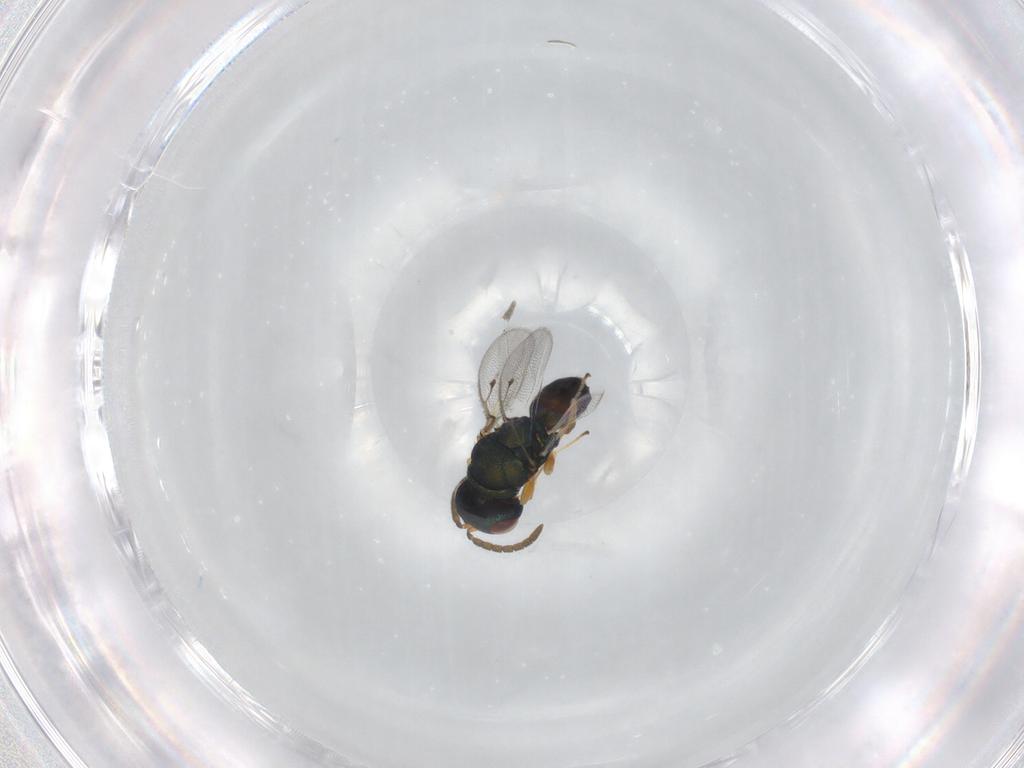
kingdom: Animalia
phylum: Arthropoda
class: Insecta
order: Hymenoptera
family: Pteromalidae
